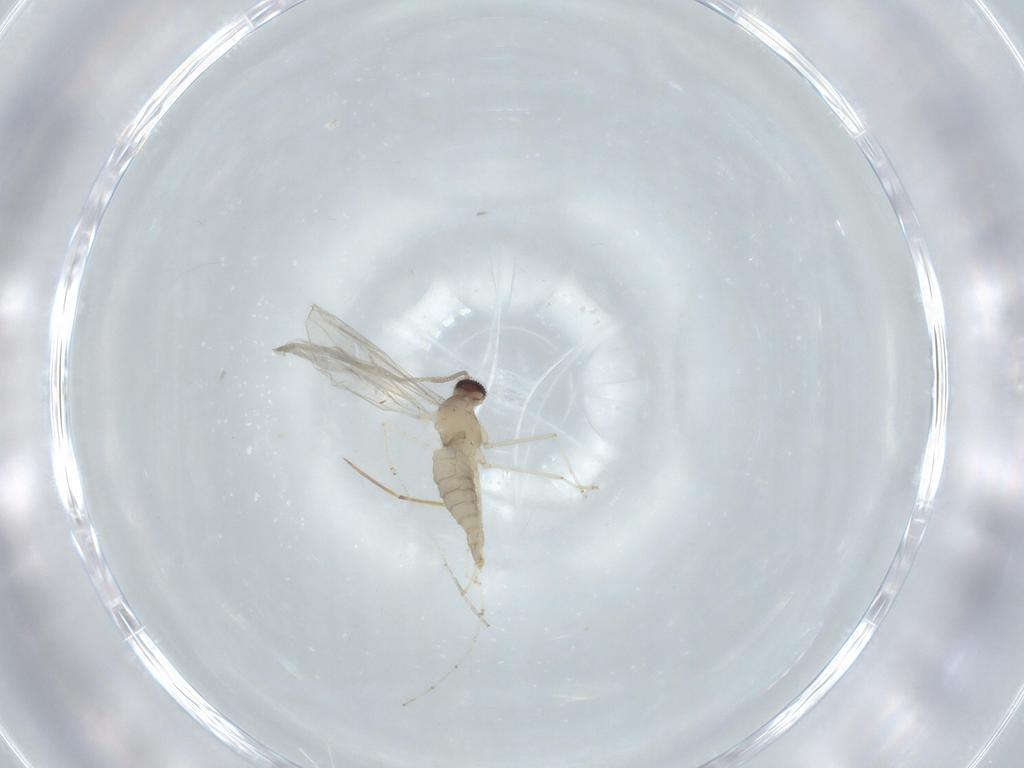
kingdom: Animalia
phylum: Arthropoda
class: Insecta
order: Diptera
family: Cecidomyiidae
